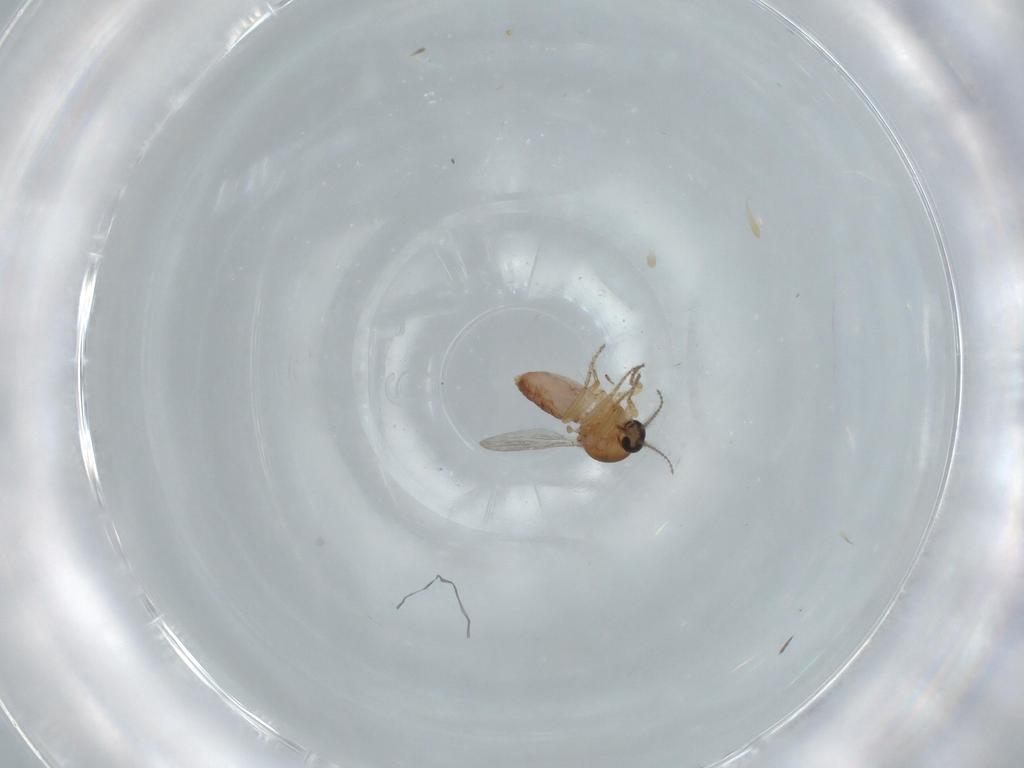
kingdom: Animalia
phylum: Arthropoda
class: Insecta
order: Diptera
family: Ceratopogonidae
